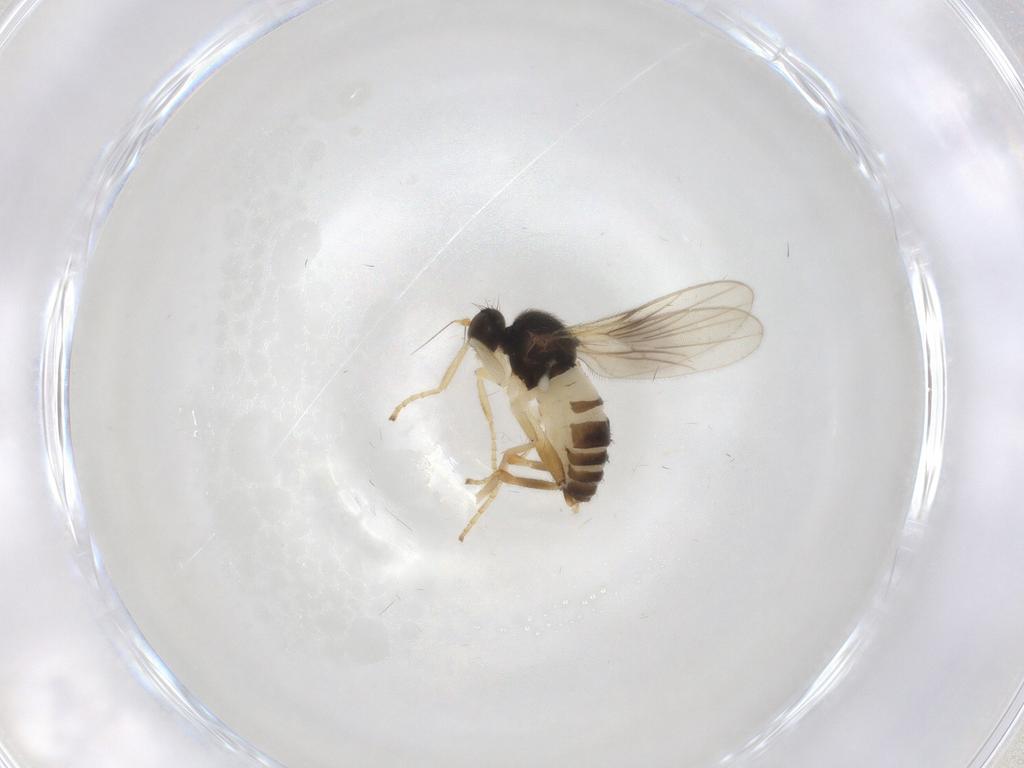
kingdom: Animalia
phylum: Arthropoda
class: Insecta
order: Diptera
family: Hybotidae
